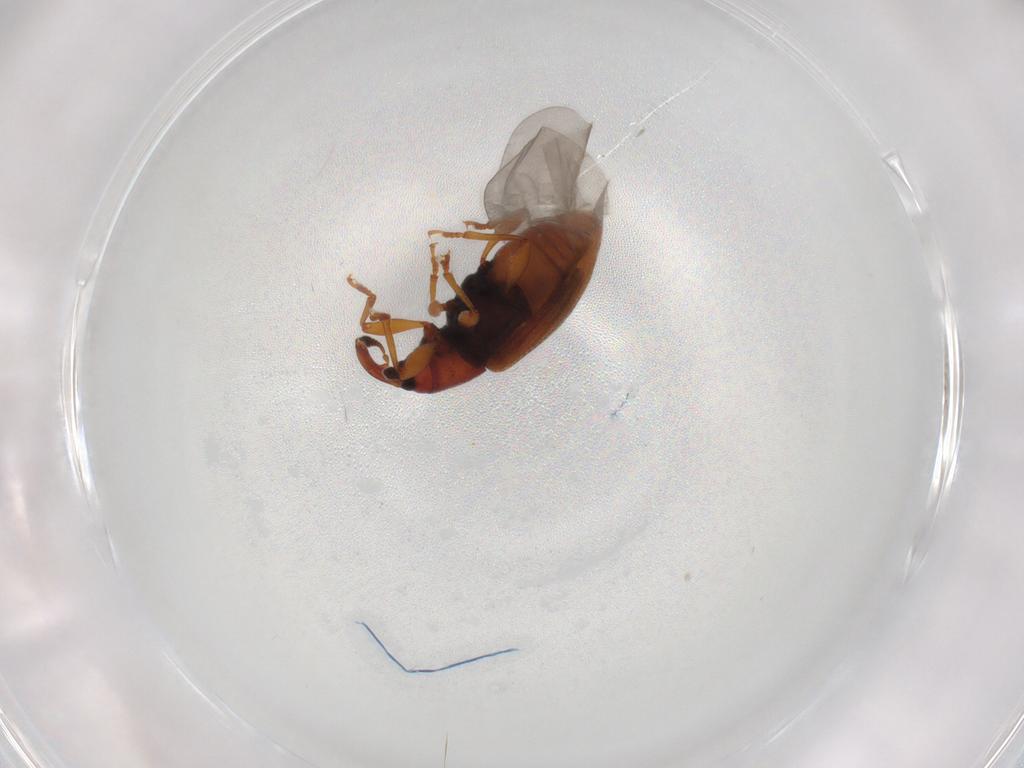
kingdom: Animalia
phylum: Arthropoda
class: Insecta
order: Coleoptera
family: Curculionidae
